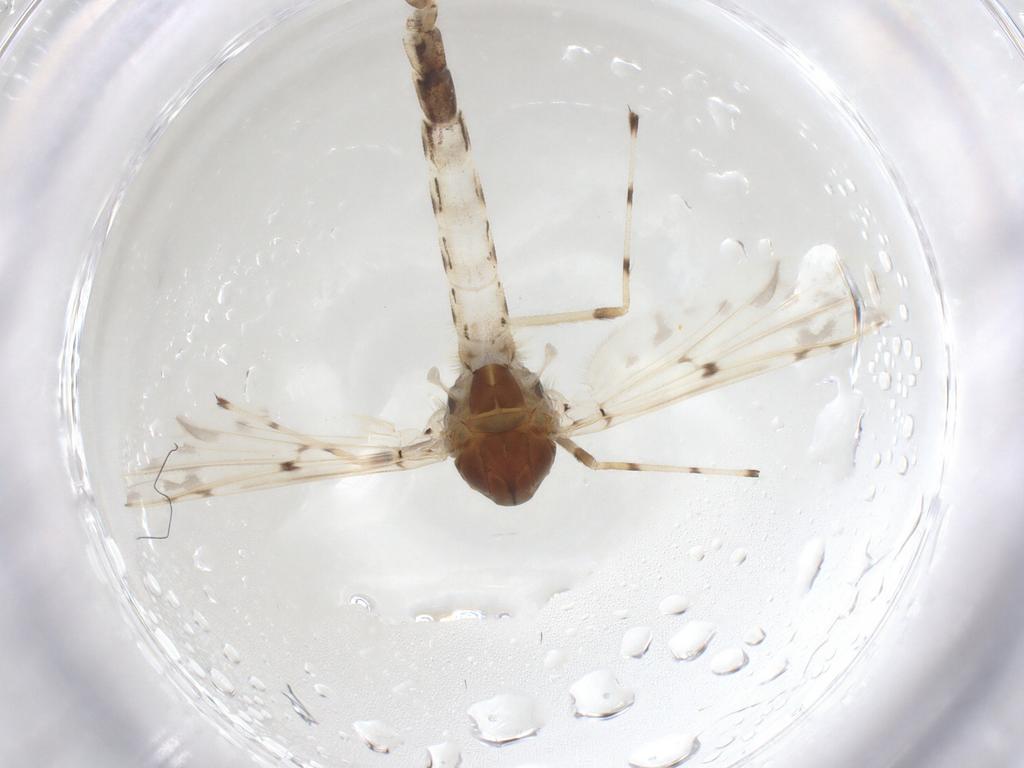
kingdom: Animalia
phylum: Arthropoda
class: Insecta
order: Diptera
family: Chironomidae
